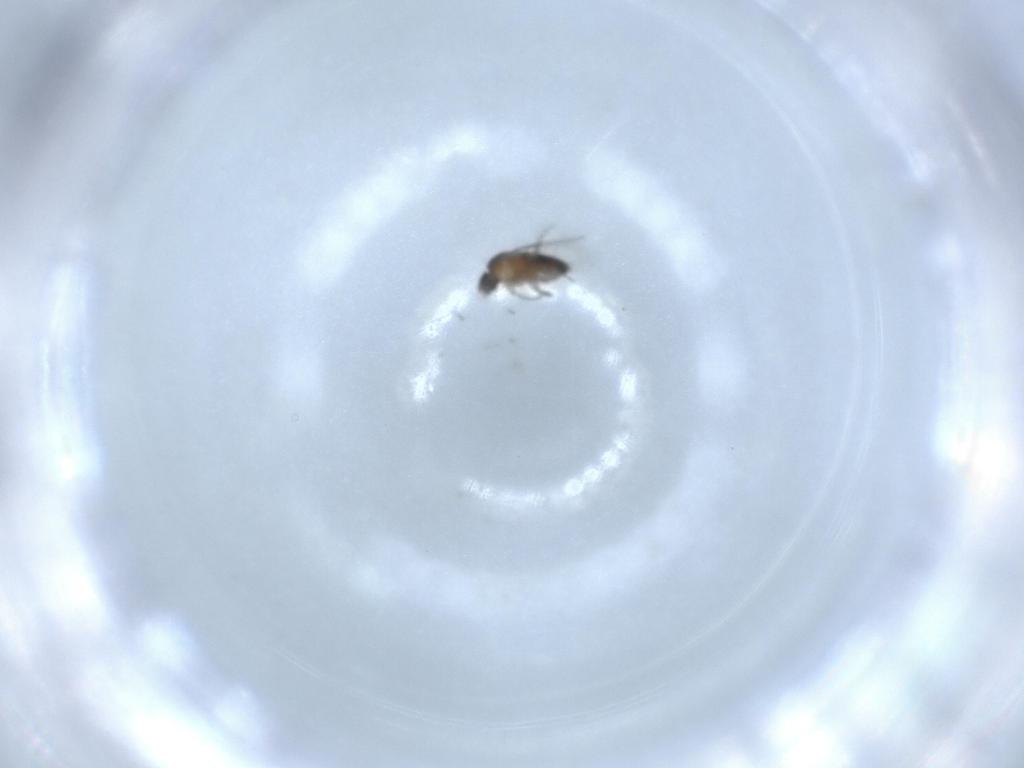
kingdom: Animalia
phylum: Arthropoda
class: Insecta
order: Diptera
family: Phoridae
